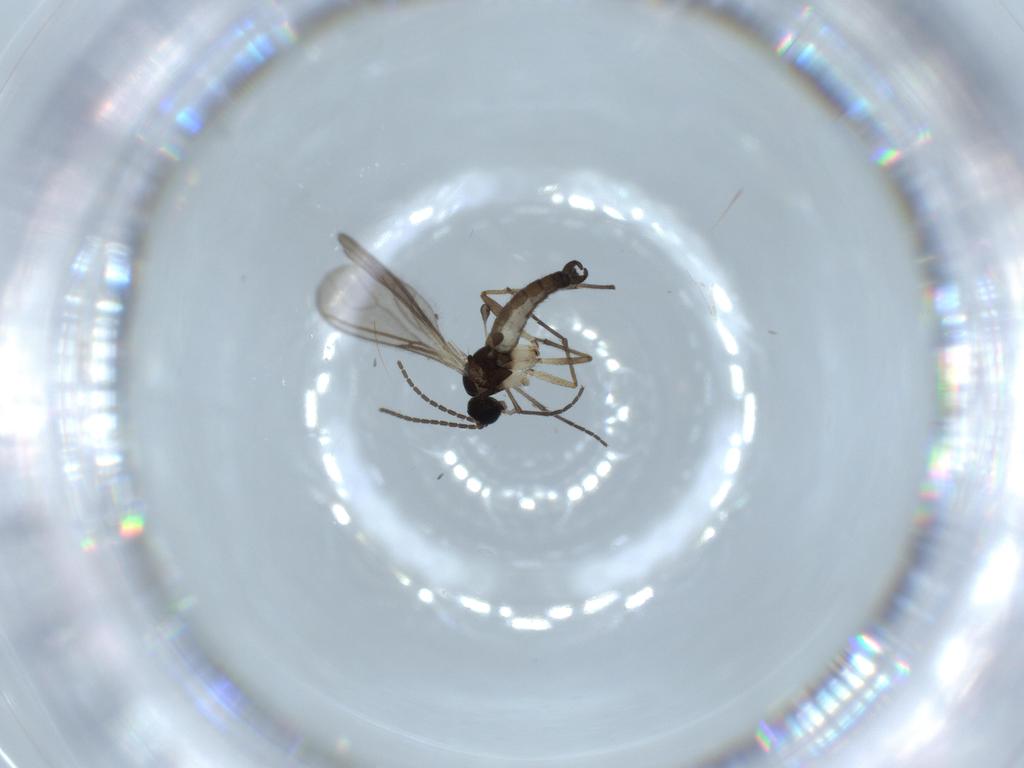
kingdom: Animalia
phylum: Arthropoda
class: Insecta
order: Diptera
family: Sciaridae
